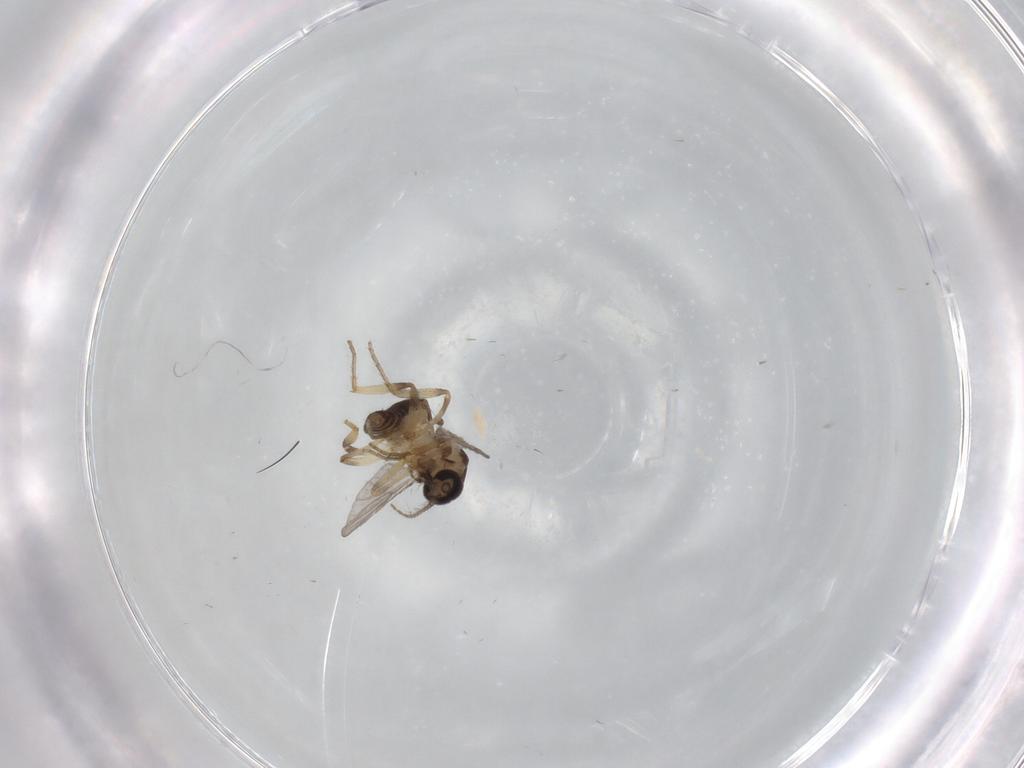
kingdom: Animalia
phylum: Arthropoda
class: Insecta
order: Diptera
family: Ceratopogonidae
